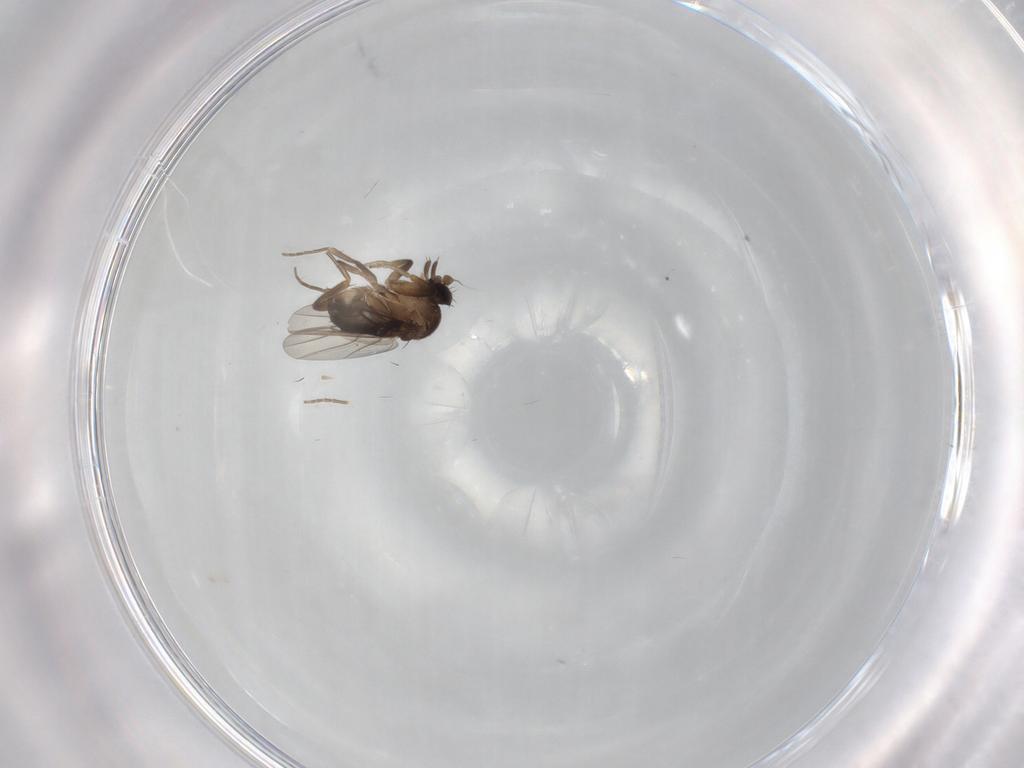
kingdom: Animalia
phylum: Arthropoda
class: Insecta
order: Diptera
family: Phoridae
